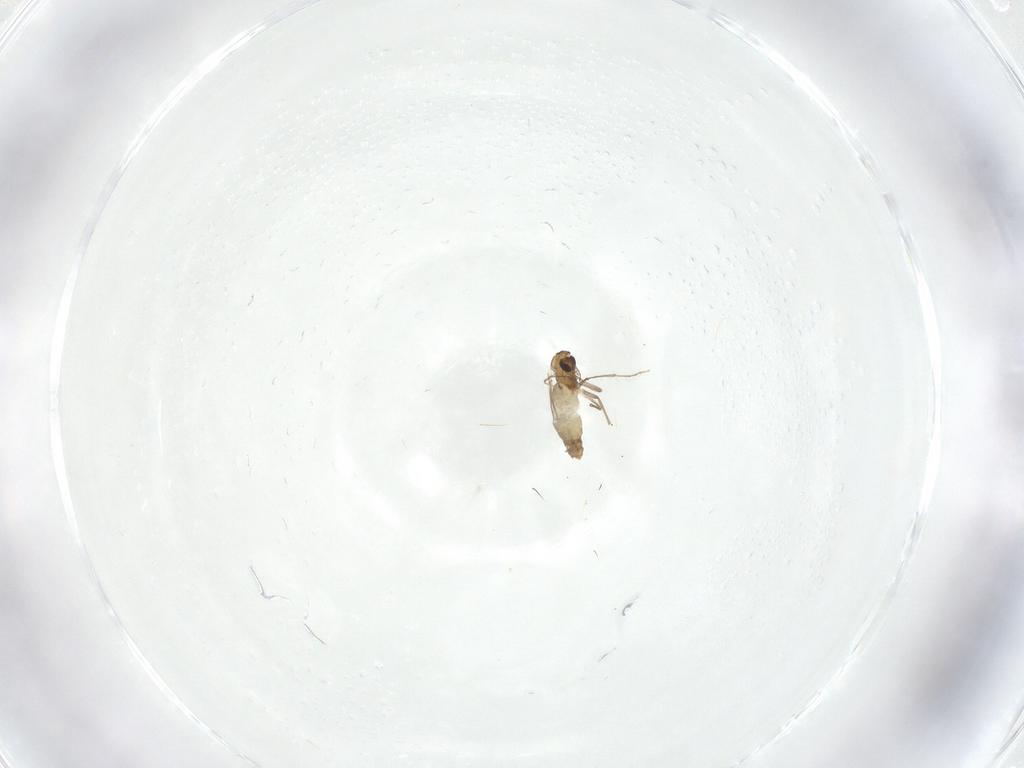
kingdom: Animalia
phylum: Arthropoda
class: Insecta
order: Diptera
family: Chironomidae
